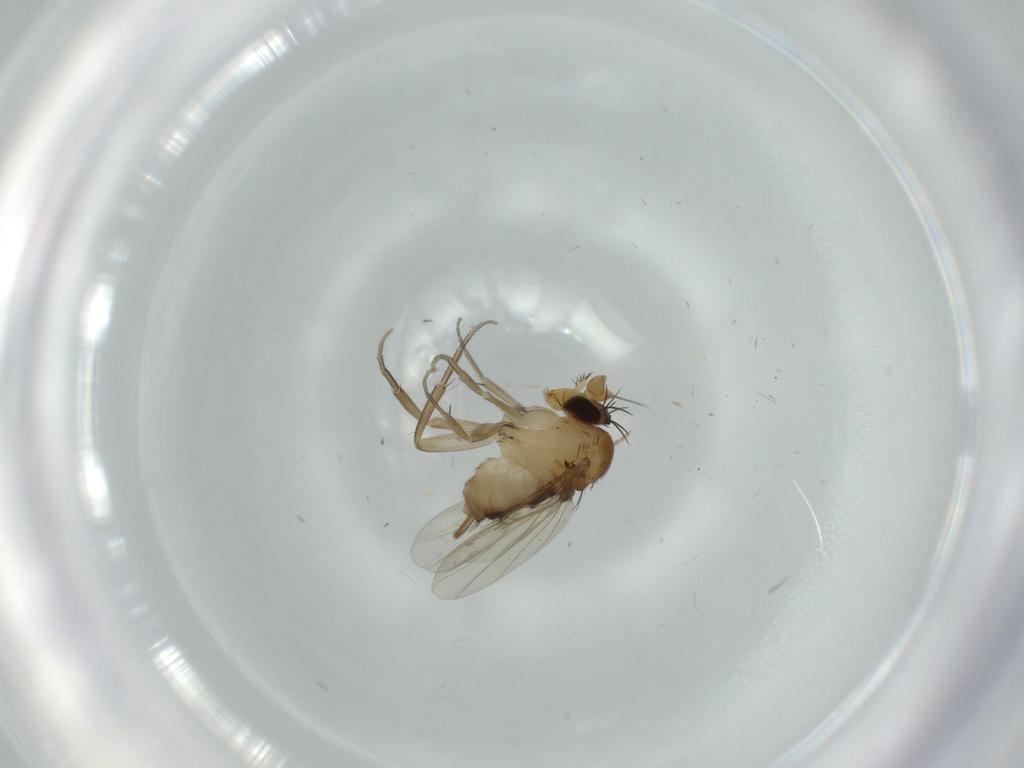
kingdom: Animalia
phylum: Arthropoda
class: Insecta
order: Diptera
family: Phoridae
